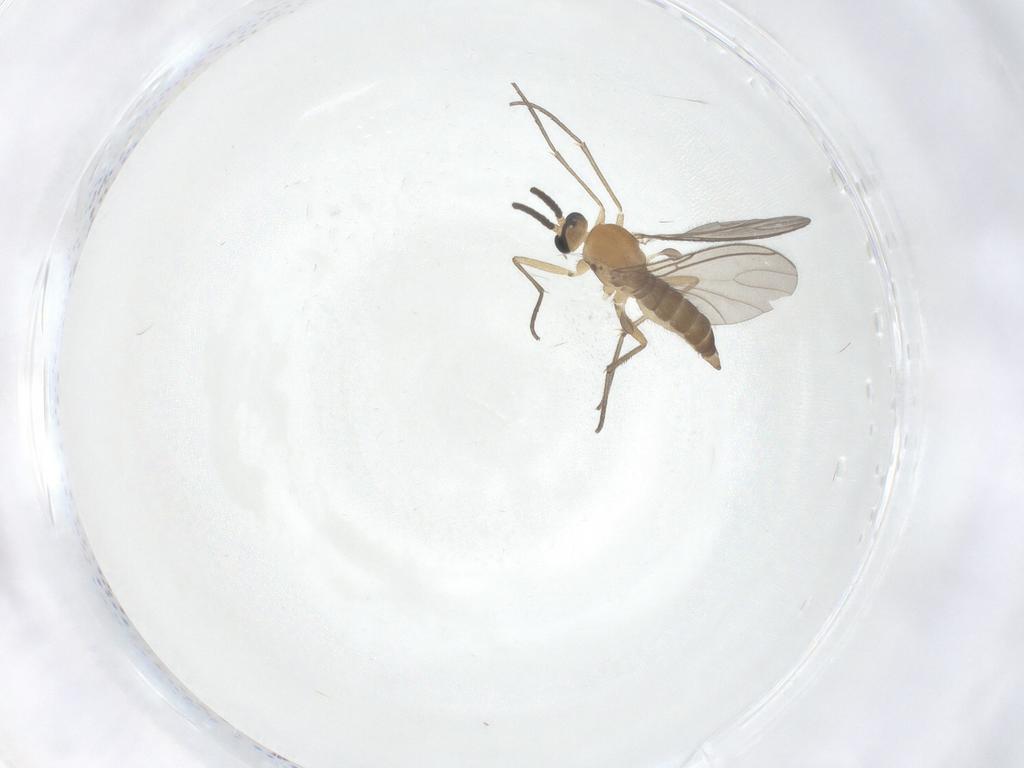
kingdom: Animalia
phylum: Arthropoda
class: Insecta
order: Diptera
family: Sciaridae
